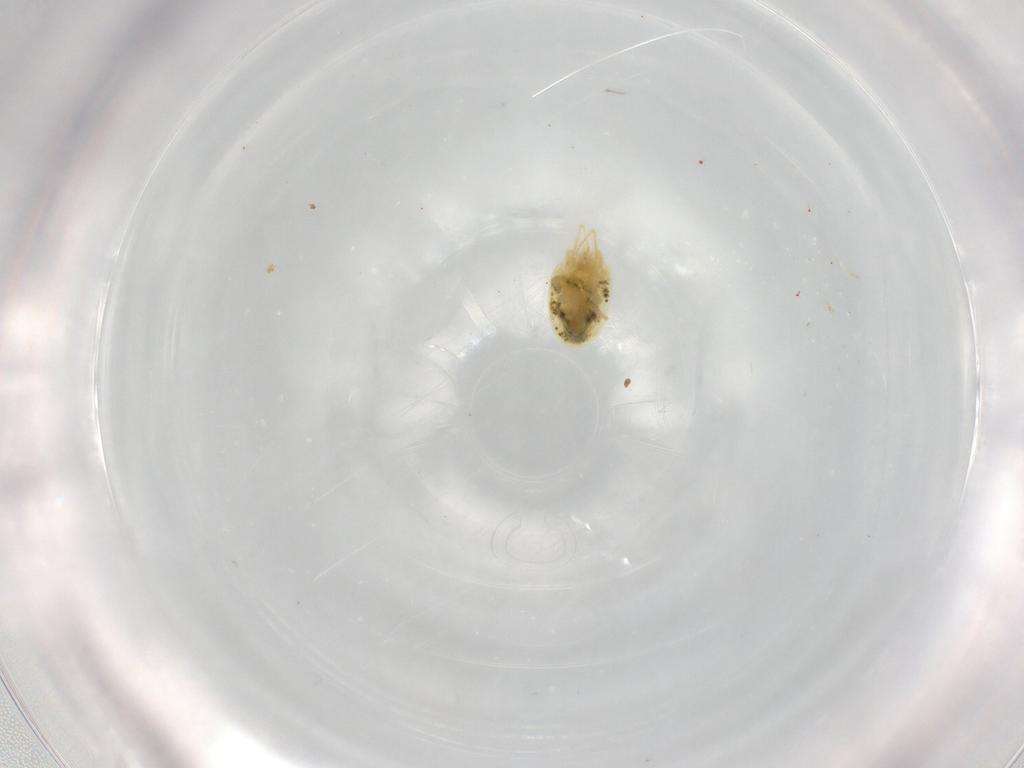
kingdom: Animalia
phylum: Arthropoda
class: Arachnida
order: Trombidiformes
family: Eupodidae
